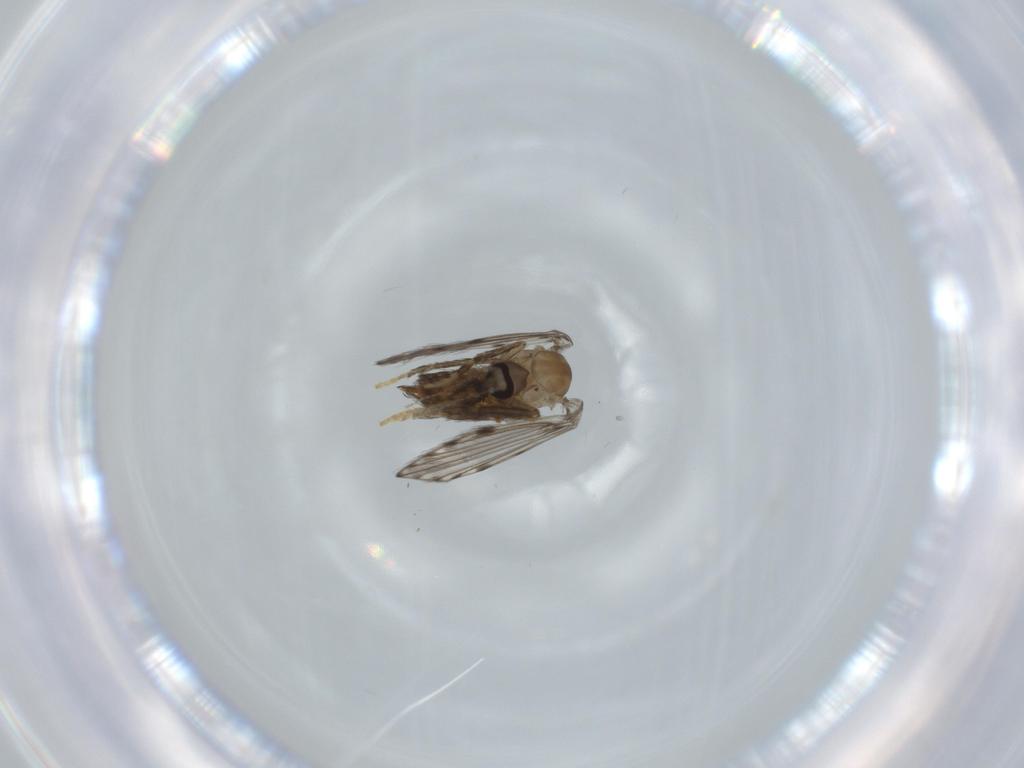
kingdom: Animalia
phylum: Arthropoda
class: Insecta
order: Diptera
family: Psychodidae
